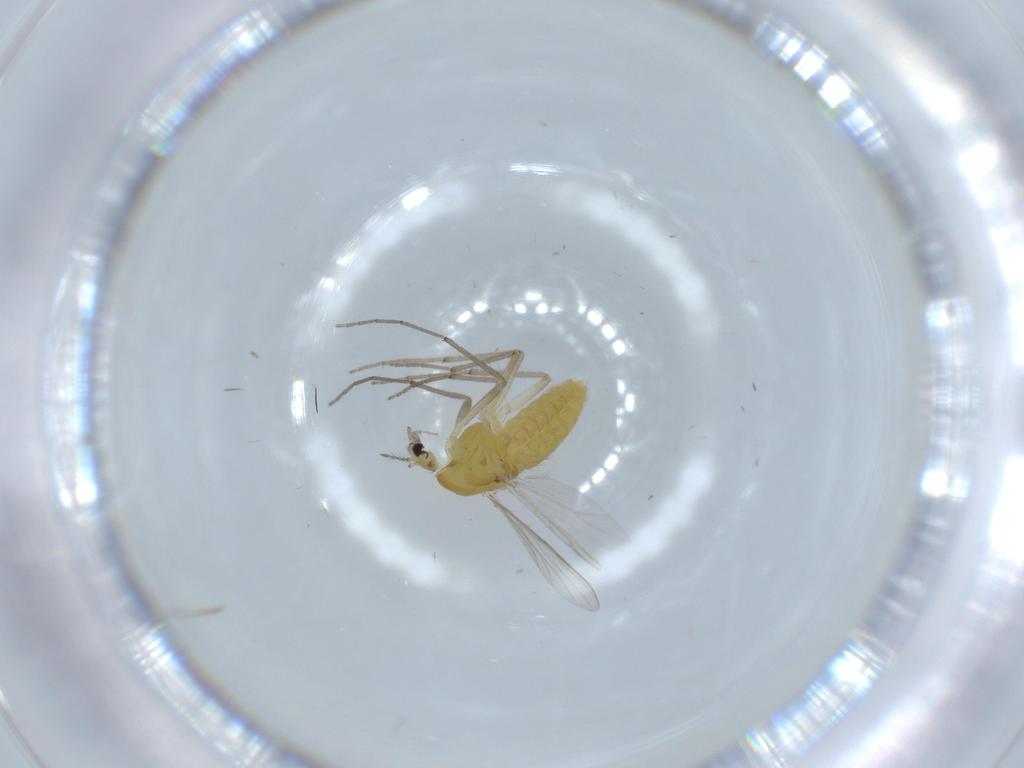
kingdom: Animalia
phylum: Arthropoda
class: Insecta
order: Diptera
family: Chironomidae
